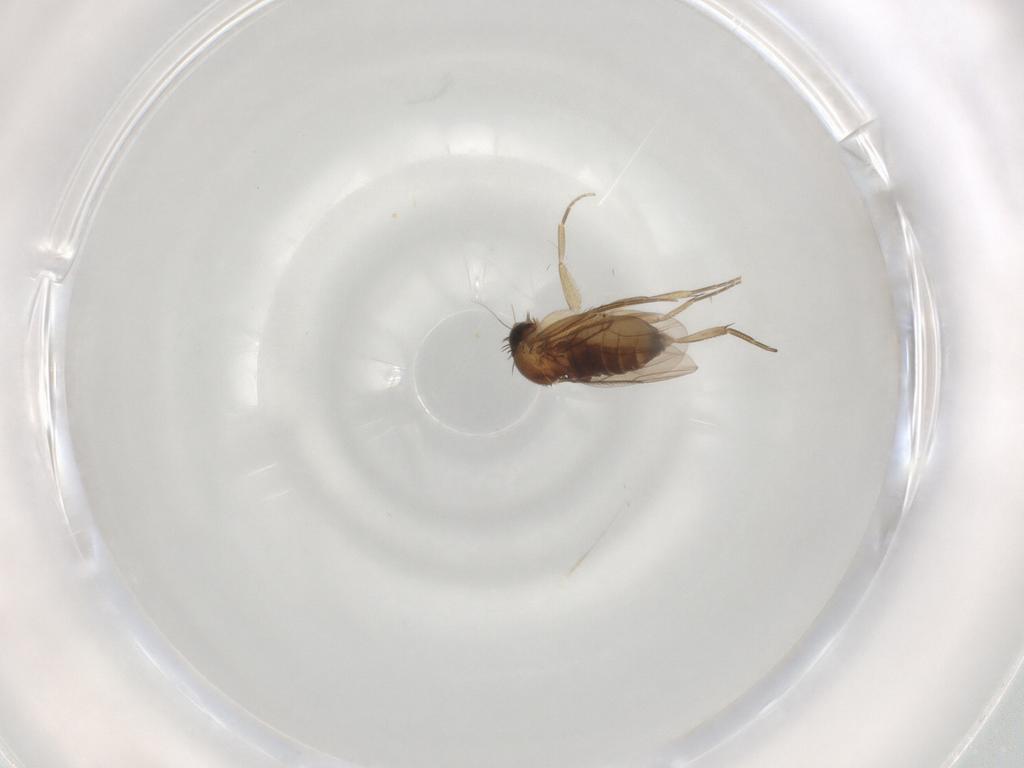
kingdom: Animalia
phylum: Arthropoda
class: Insecta
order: Diptera
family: Phoridae
